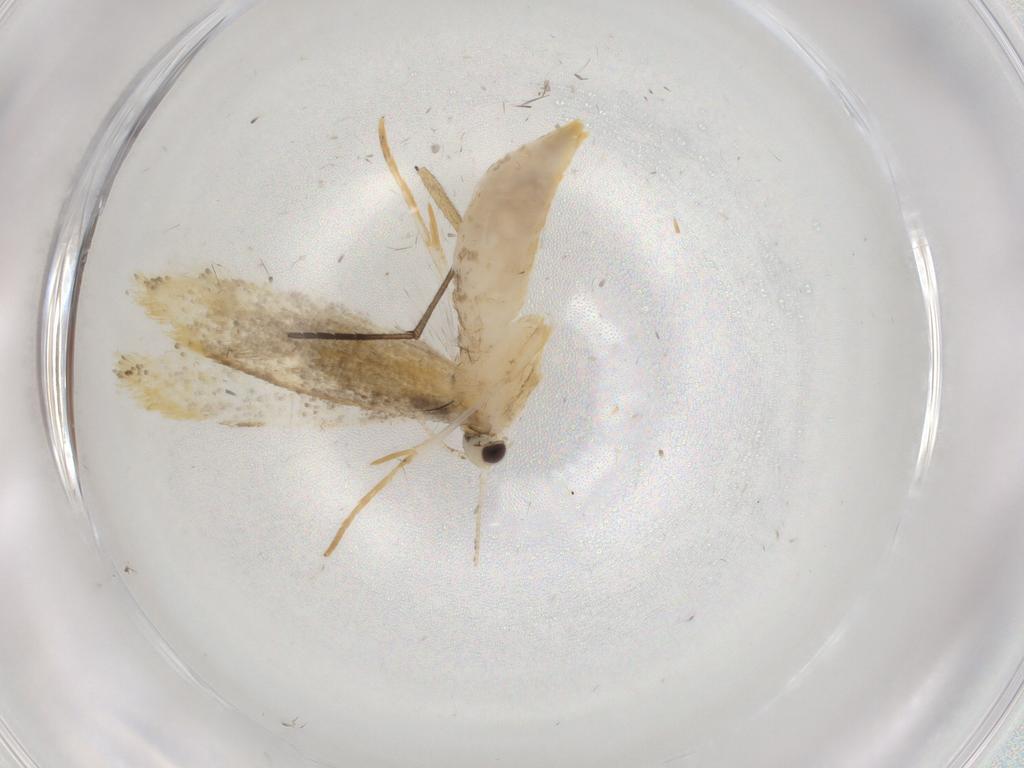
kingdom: Animalia
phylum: Arthropoda
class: Insecta
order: Lepidoptera
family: Tineidae
